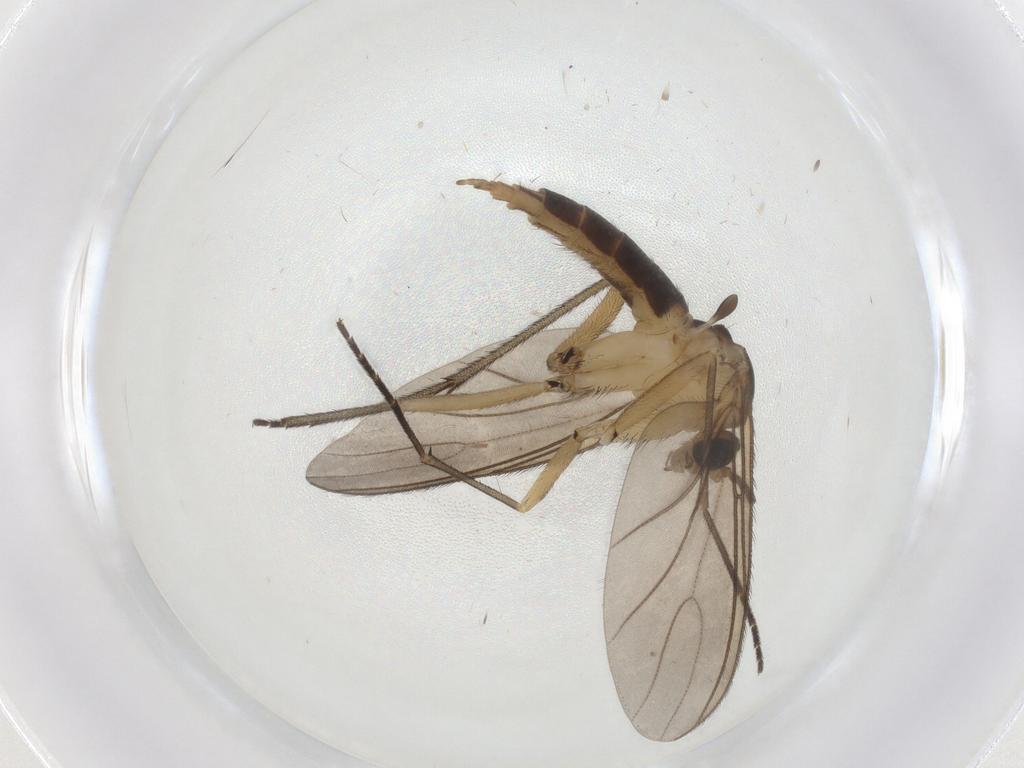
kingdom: Animalia
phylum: Arthropoda
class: Insecta
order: Diptera
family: Sciaridae
